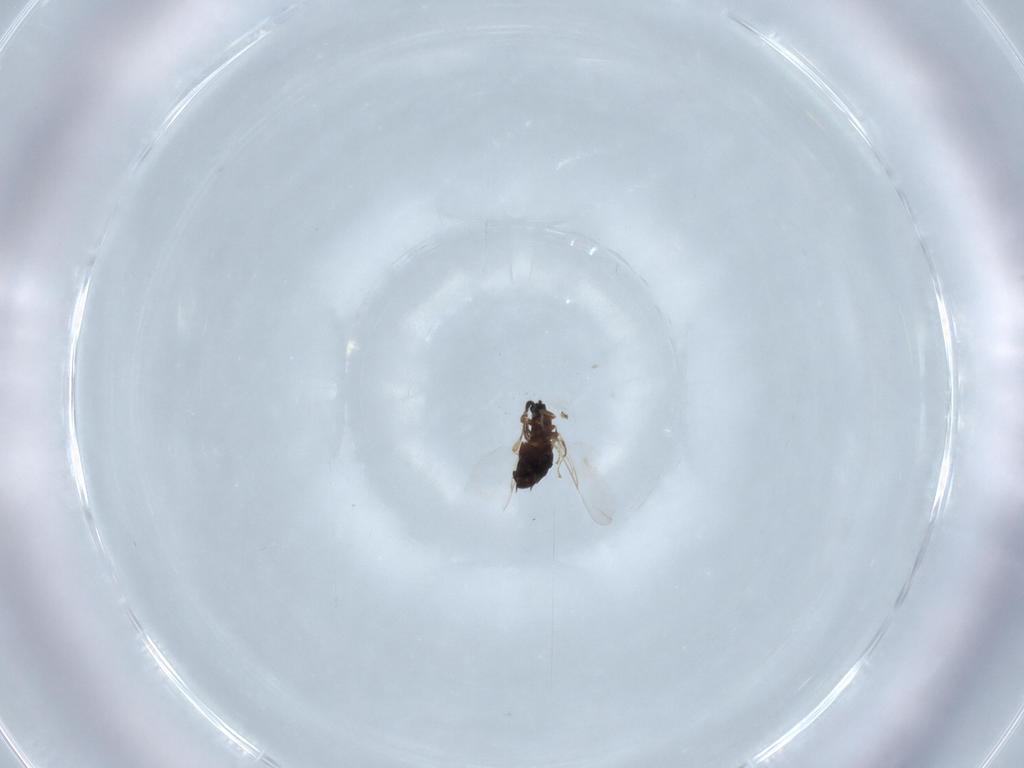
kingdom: Animalia
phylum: Arthropoda
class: Insecta
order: Diptera
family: Scatopsidae
